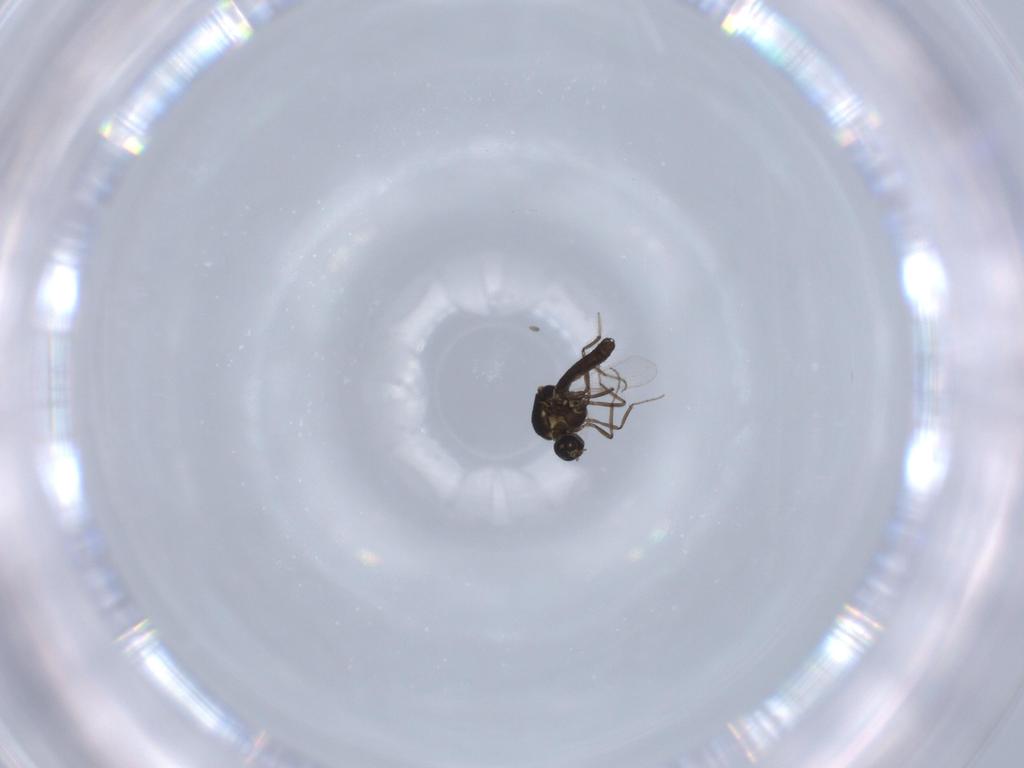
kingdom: Animalia
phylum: Arthropoda
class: Insecta
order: Diptera
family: Ceratopogonidae
